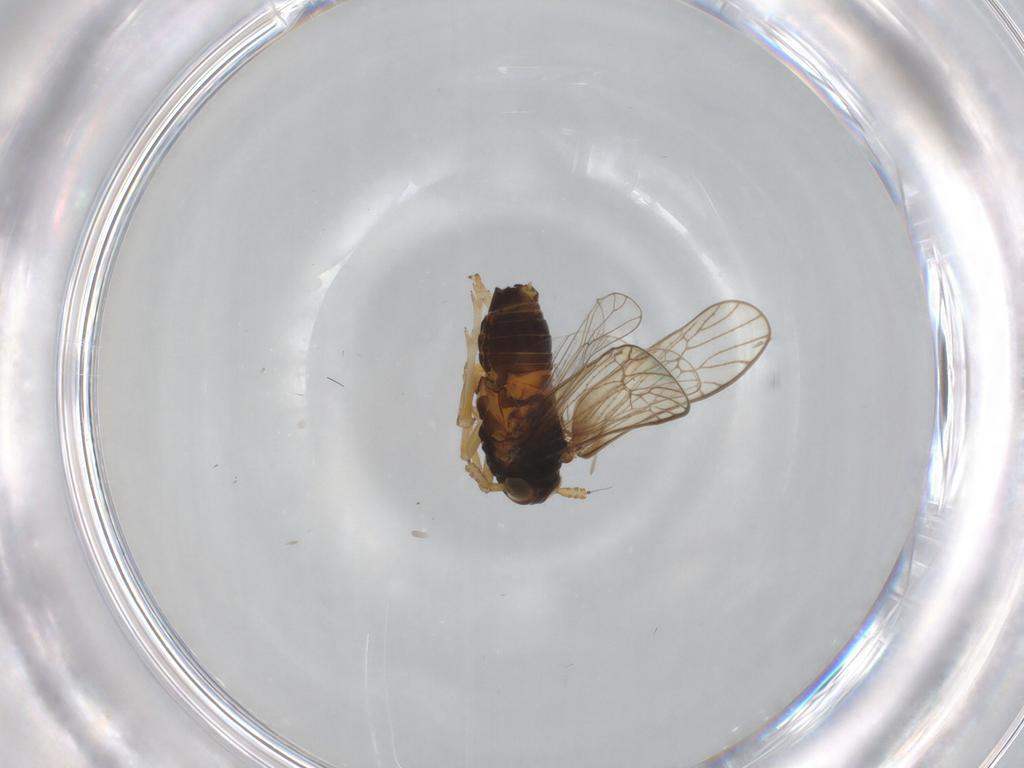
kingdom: Animalia
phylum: Arthropoda
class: Insecta
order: Hemiptera
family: Delphacidae
